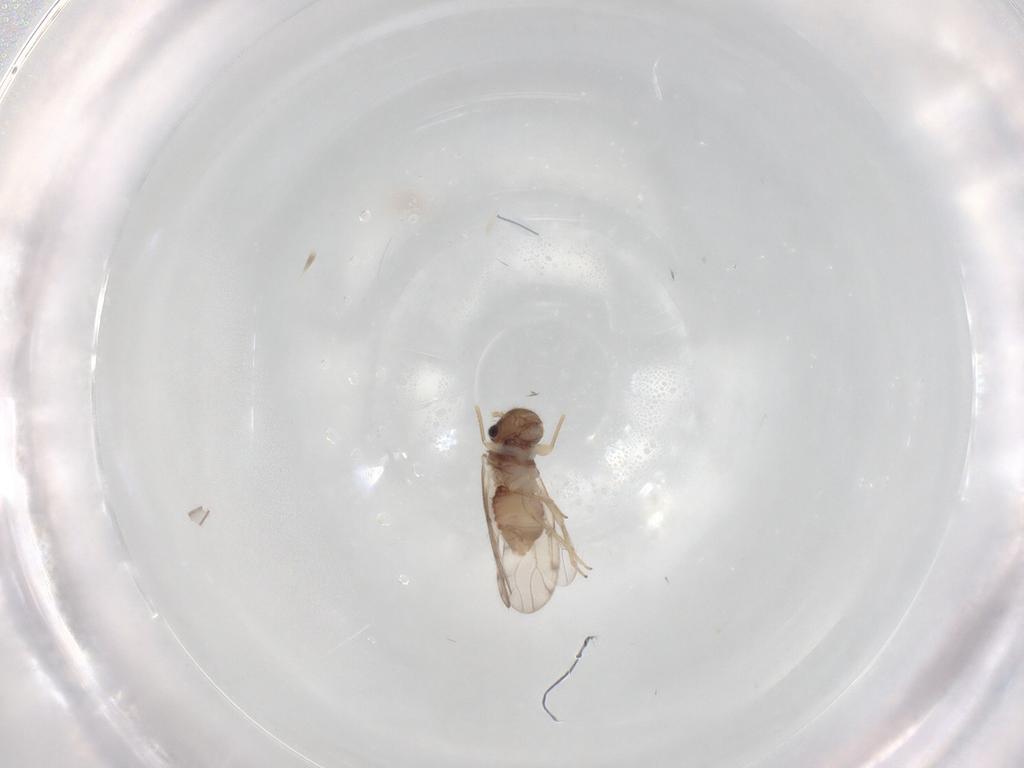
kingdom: Animalia
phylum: Arthropoda
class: Insecta
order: Psocodea
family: Peripsocidae
